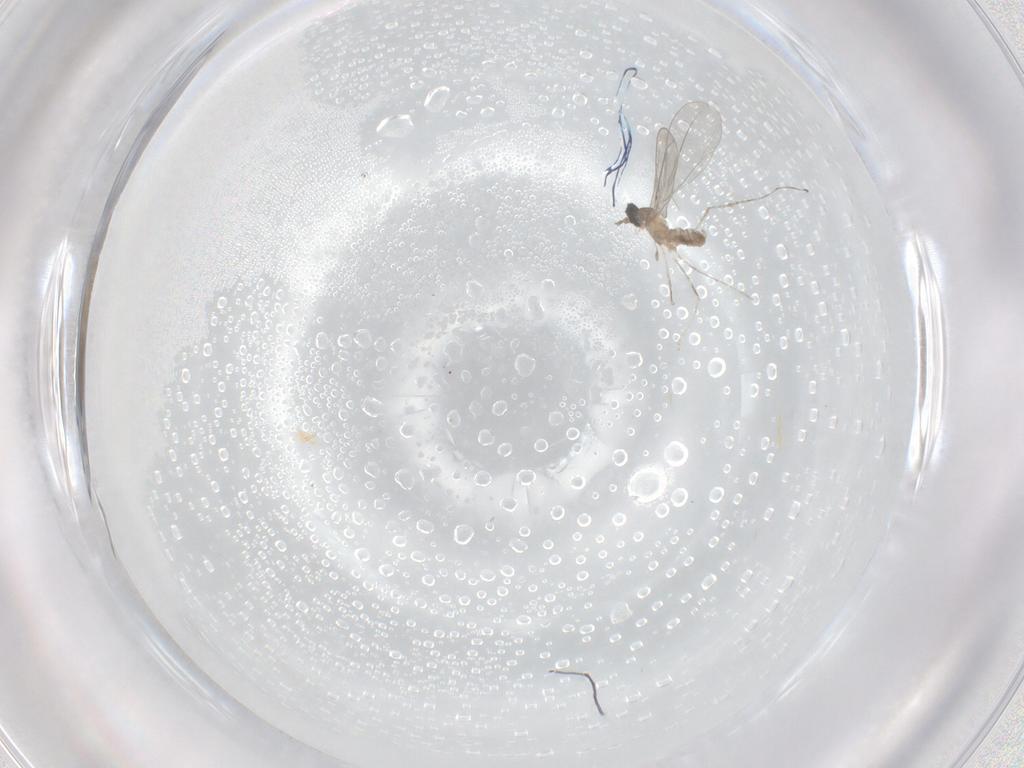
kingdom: Animalia
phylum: Arthropoda
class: Insecta
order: Diptera
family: Cecidomyiidae
